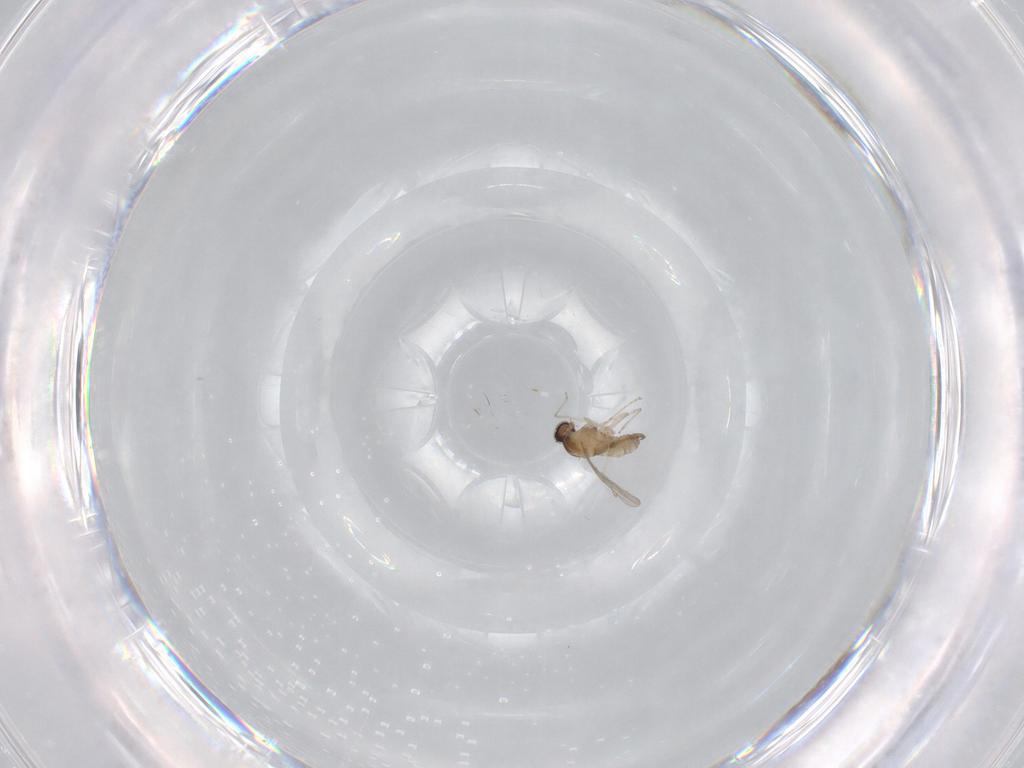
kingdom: Animalia
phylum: Arthropoda
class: Insecta
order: Diptera
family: Cecidomyiidae
